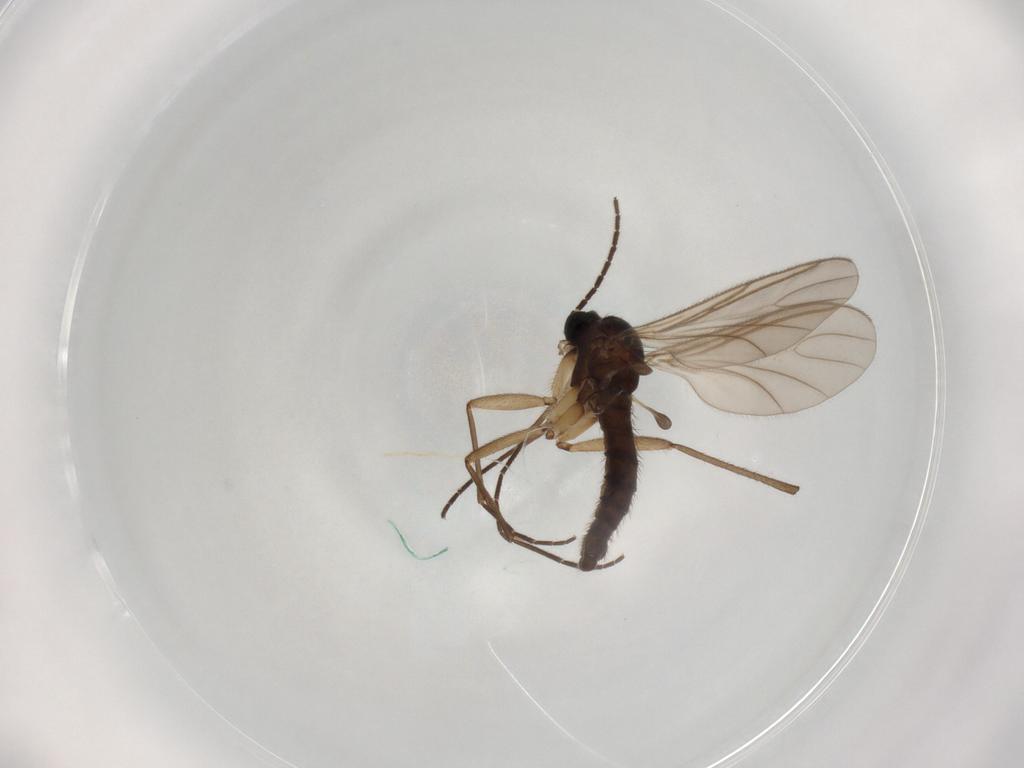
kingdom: Animalia
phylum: Arthropoda
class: Insecta
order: Diptera
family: Sciaridae
